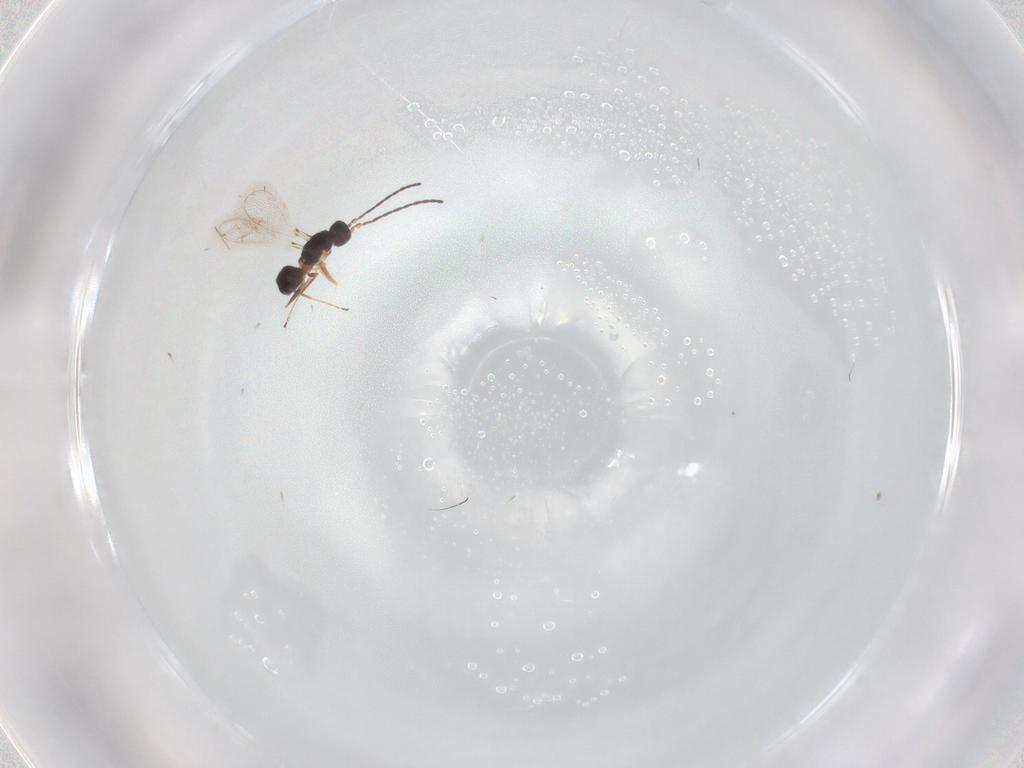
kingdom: Animalia
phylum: Arthropoda
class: Insecta
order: Hymenoptera
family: Mymaridae
